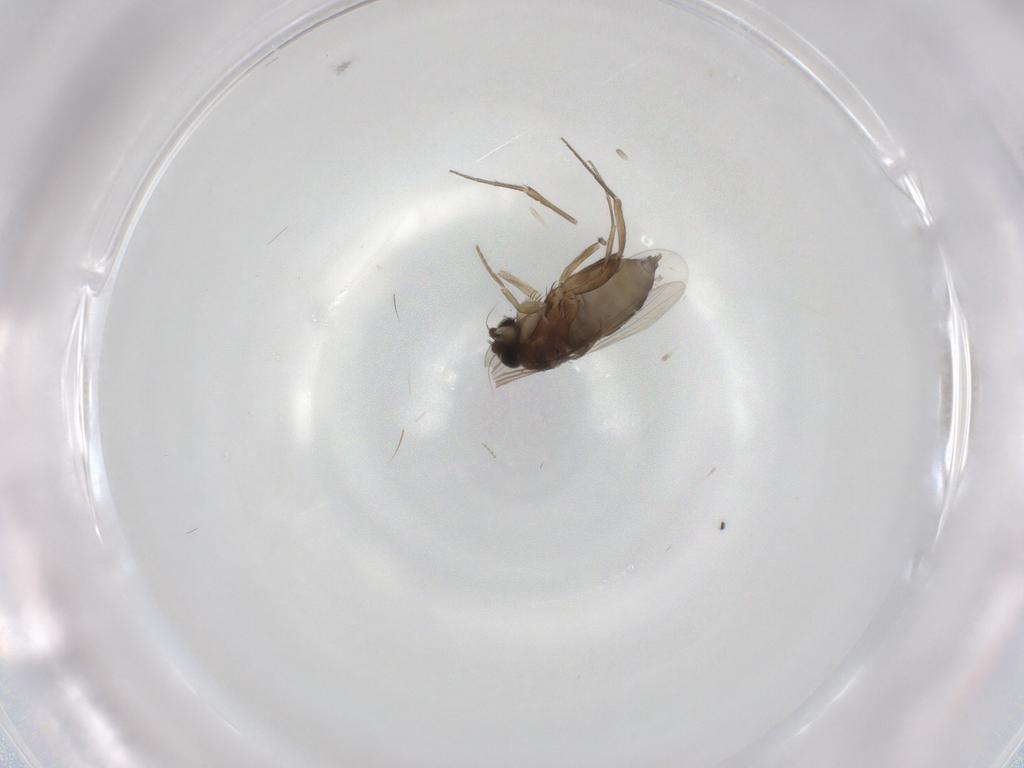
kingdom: Animalia
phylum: Arthropoda
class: Insecta
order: Diptera
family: Phoridae
